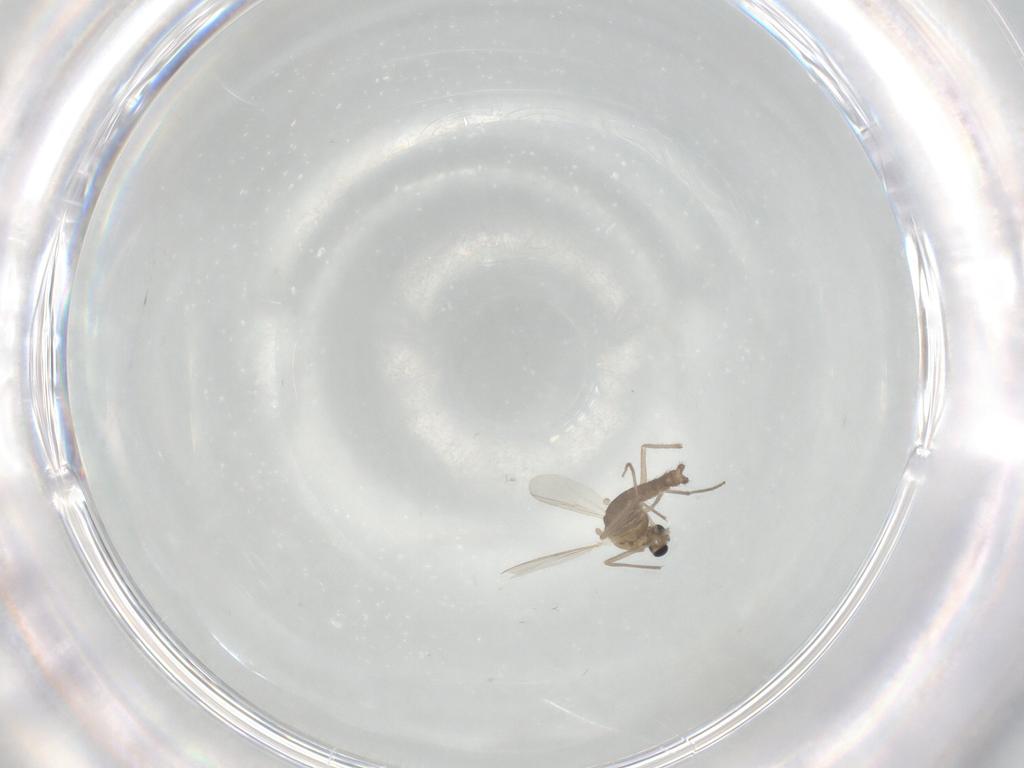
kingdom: Animalia
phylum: Arthropoda
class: Insecta
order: Diptera
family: Chironomidae
